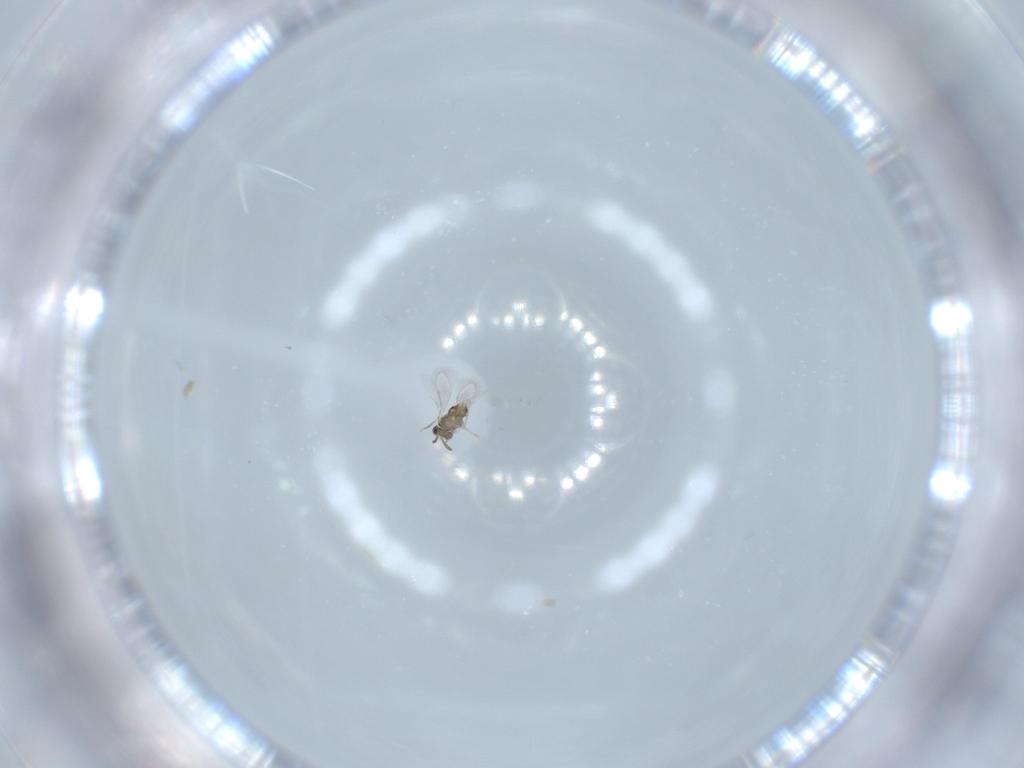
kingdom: Animalia
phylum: Arthropoda
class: Insecta
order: Hymenoptera
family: Aphelinidae
